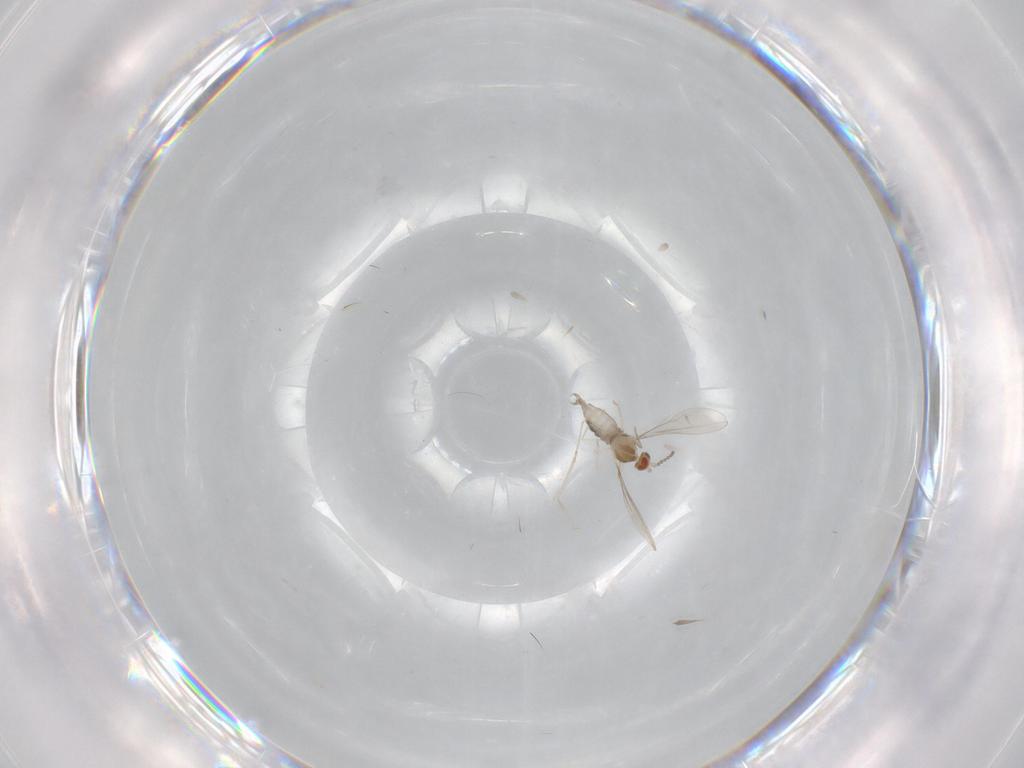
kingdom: Animalia
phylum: Arthropoda
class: Insecta
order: Diptera
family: Cecidomyiidae
